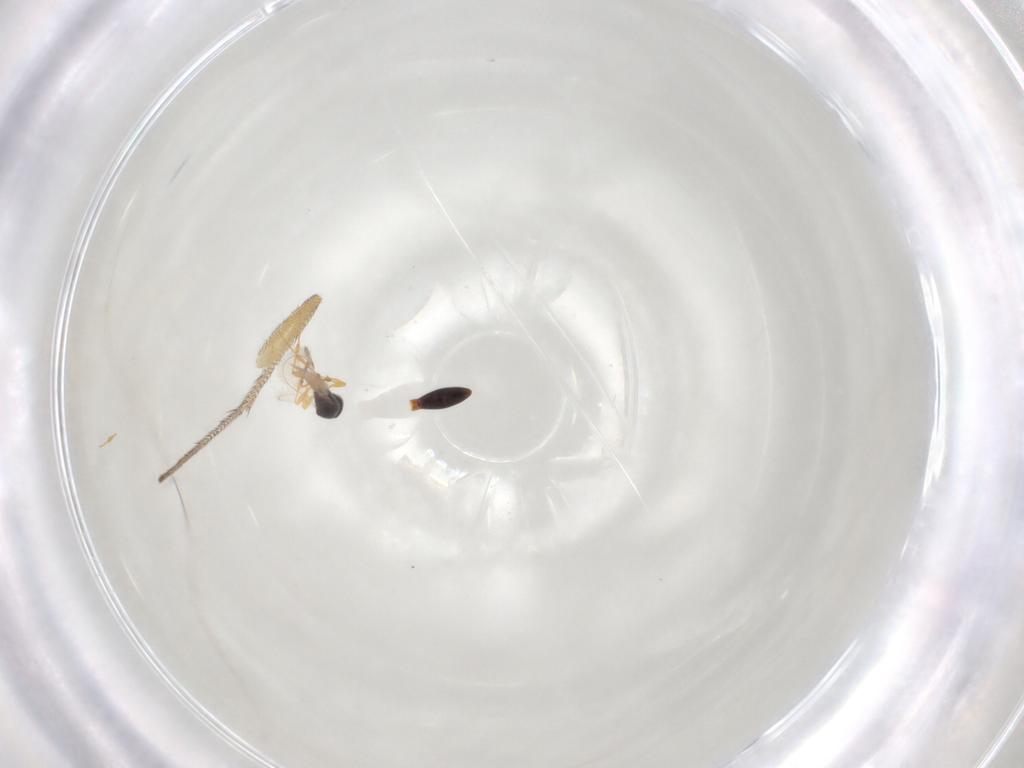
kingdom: Animalia
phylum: Arthropoda
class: Insecta
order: Hymenoptera
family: Platygastridae
